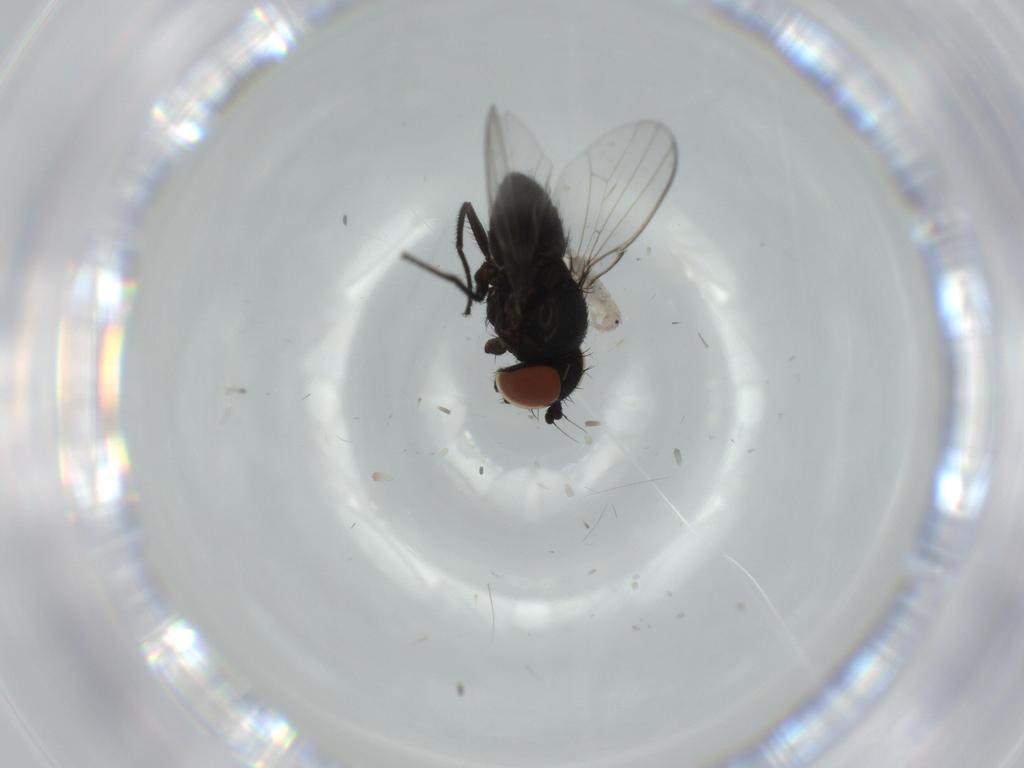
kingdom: Animalia
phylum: Arthropoda
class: Insecta
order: Diptera
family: Milichiidae
